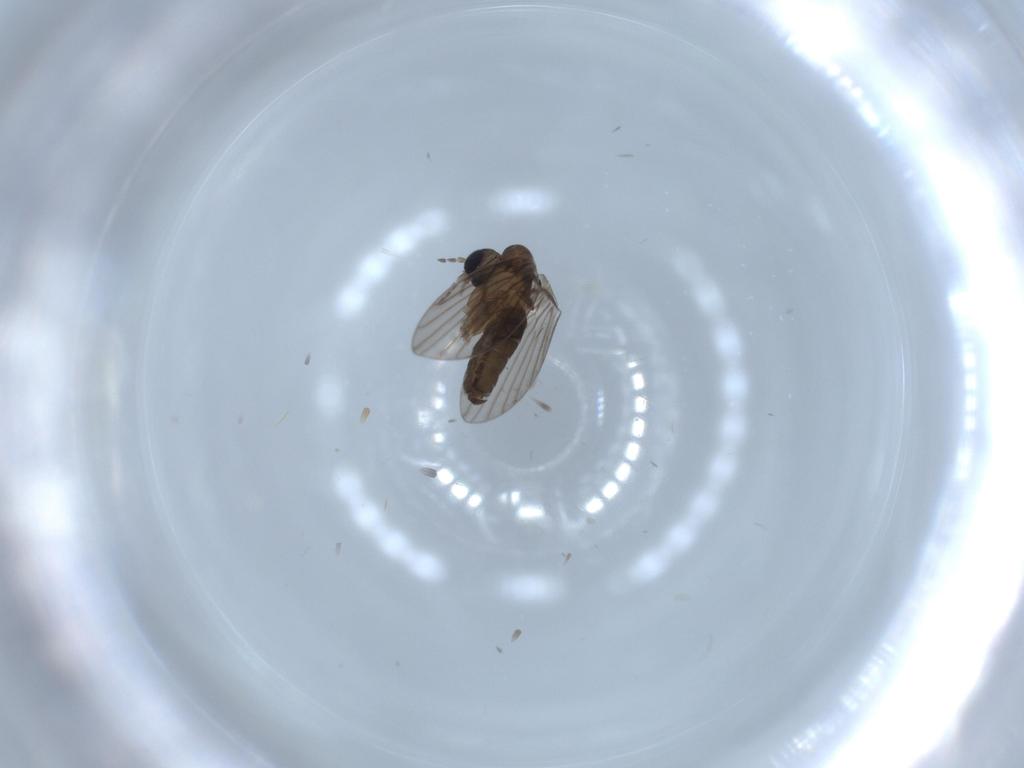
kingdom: Animalia
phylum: Arthropoda
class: Insecta
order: Diptera
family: Psychodidae
